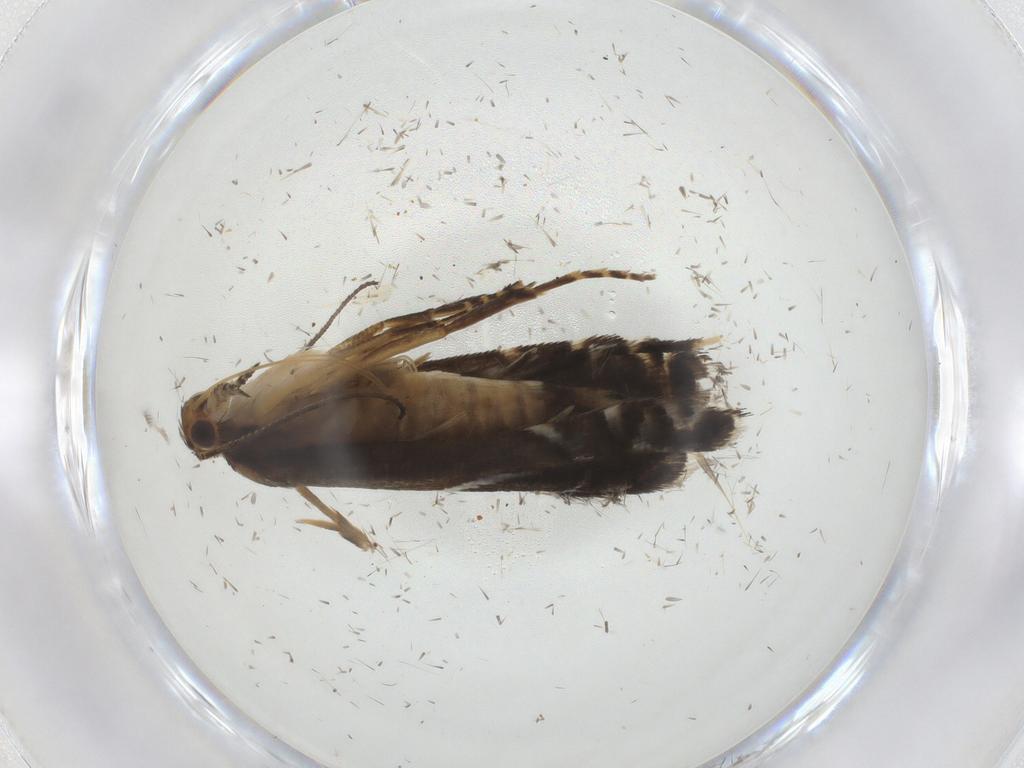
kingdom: Animalia
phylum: Arthropoda
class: Insecta
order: Lepidoptera
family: Glyphipterigidae
